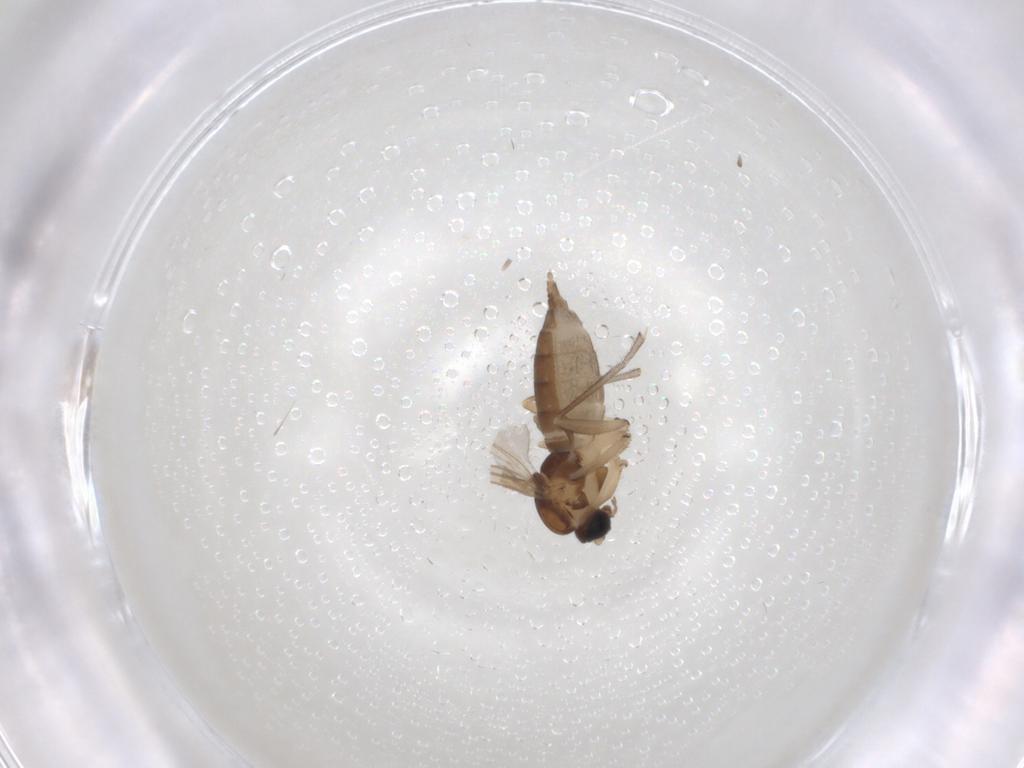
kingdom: Animalia
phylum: Arthropoda
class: Insecta
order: Diptera
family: Sciaridae
